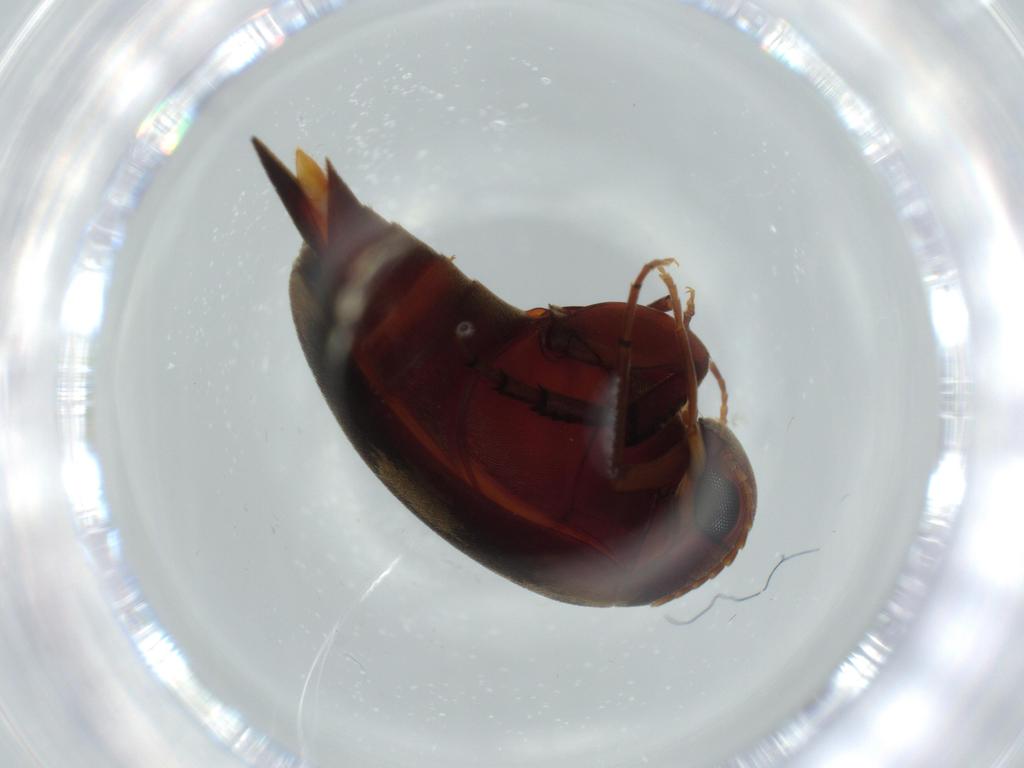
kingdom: Animalia
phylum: Arthropoda
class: Insecta
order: Coleoptera
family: Mordellidae
